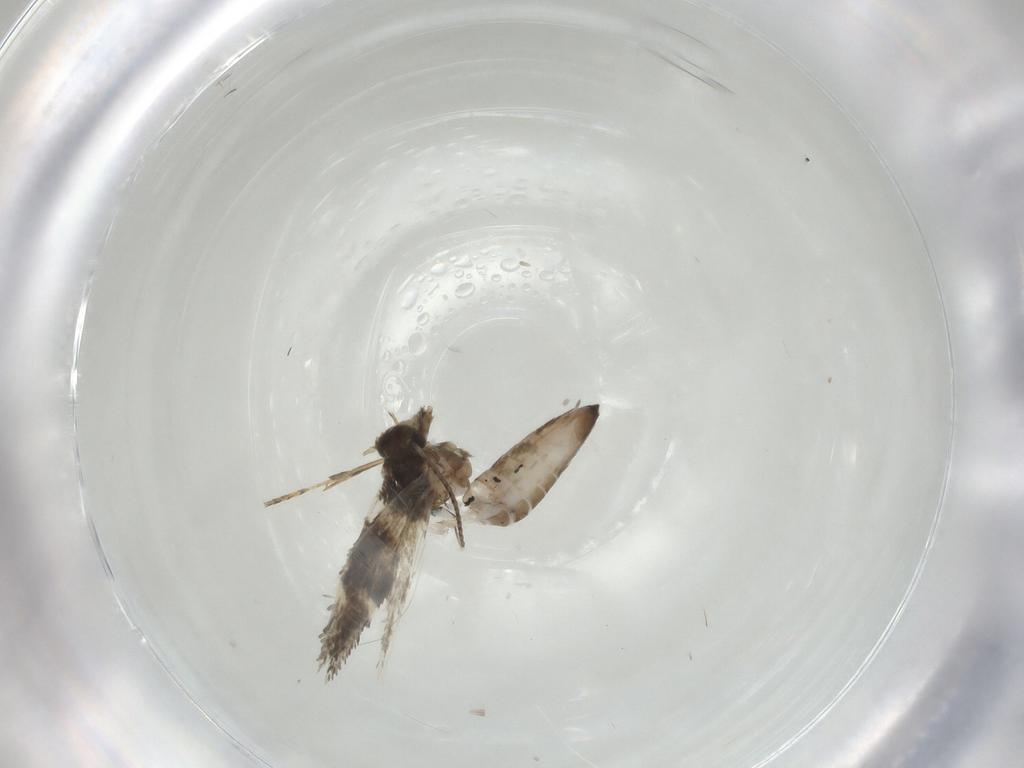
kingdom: Animalia
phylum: Arthropoda
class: Insecta
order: Lepidoptera
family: Heliozelidae
